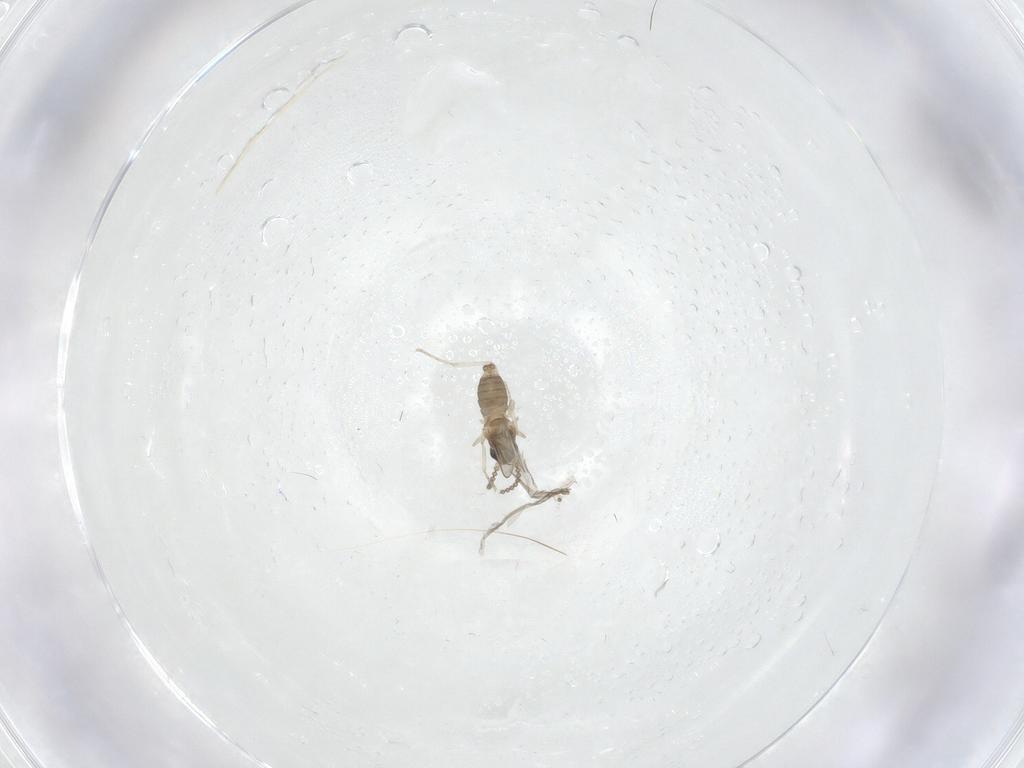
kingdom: Animalia
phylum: Arthropoda
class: Insecta
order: Diptera
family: Cecidomyiidae
